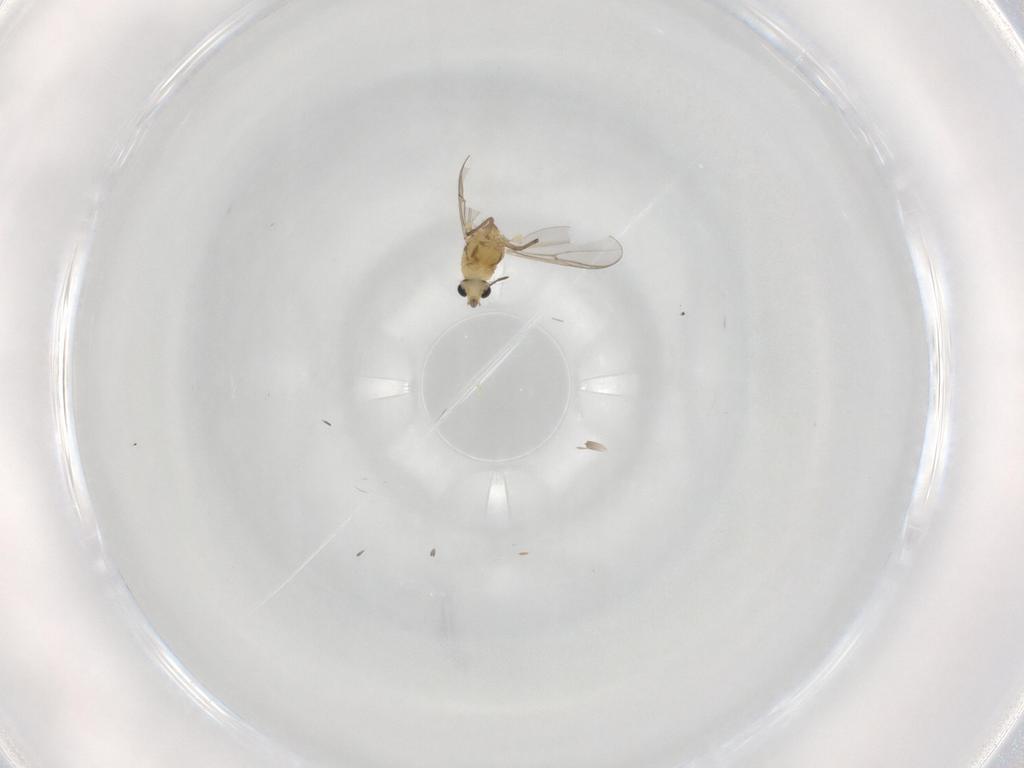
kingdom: Animalia
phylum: Arthropoda
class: Insecta
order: Diptera
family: Chironomidae
